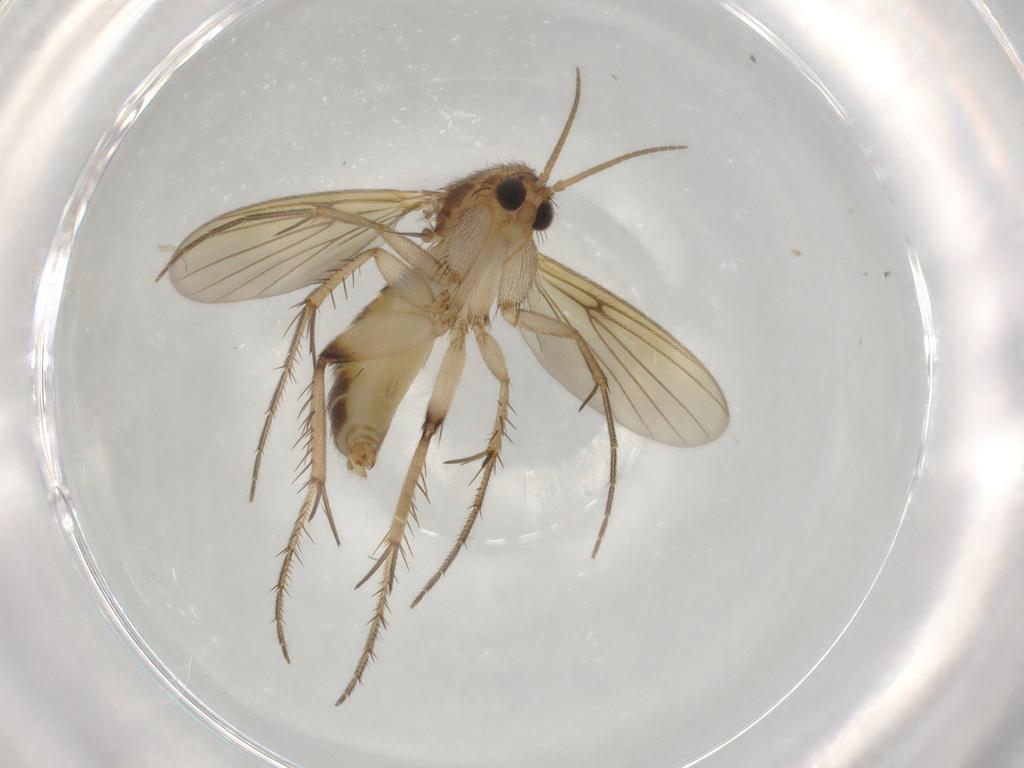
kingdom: Animalia
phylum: Arthropoda
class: Insecta
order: Diptera
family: Mycetophilidae
